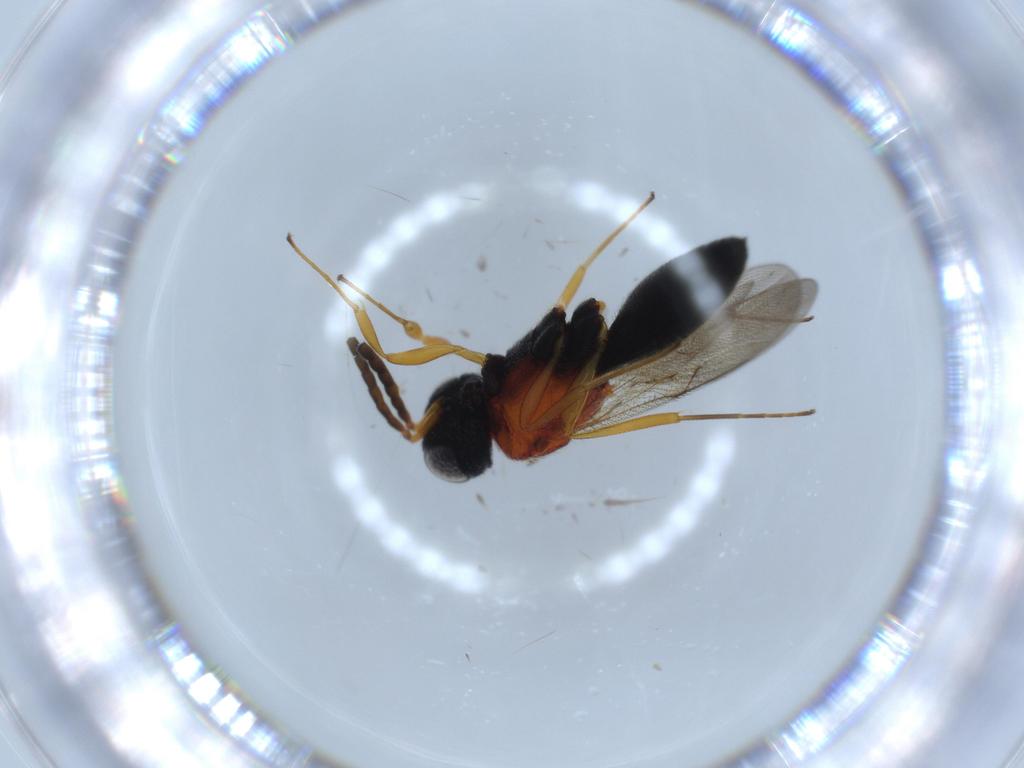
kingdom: Animalia
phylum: Arthropoda
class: Insecta
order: Hymenoptera
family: Scelionidae
